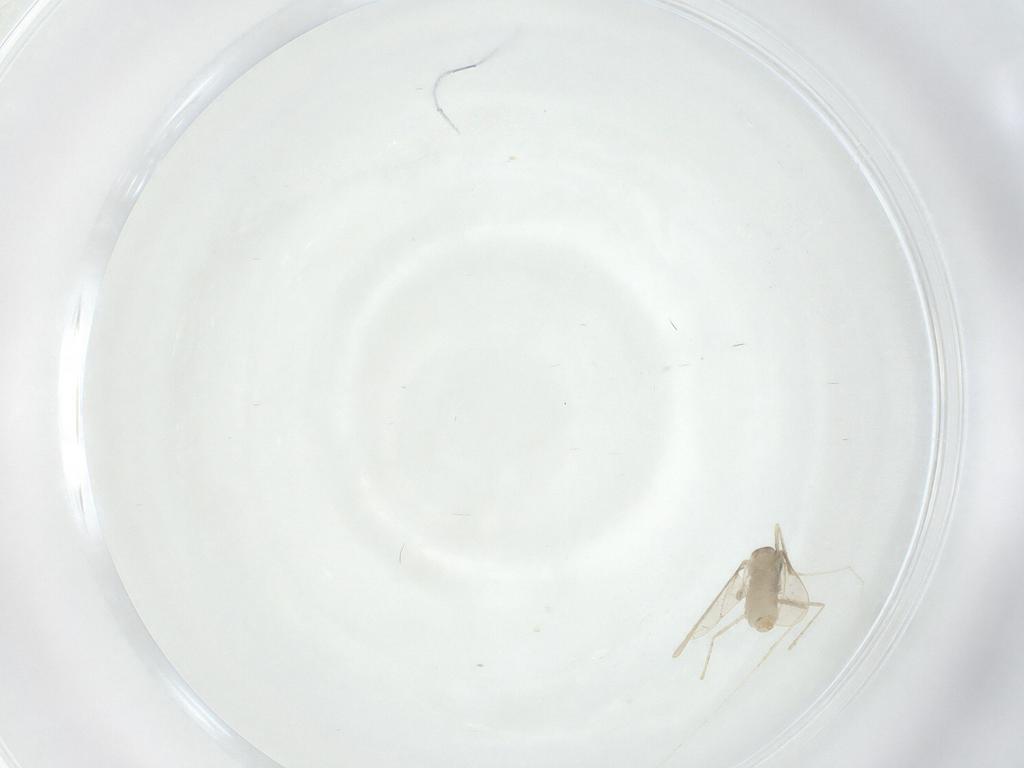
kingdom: Animalia
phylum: Arthropoda
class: Insecta
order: Diptera
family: Cecidomyiidae
